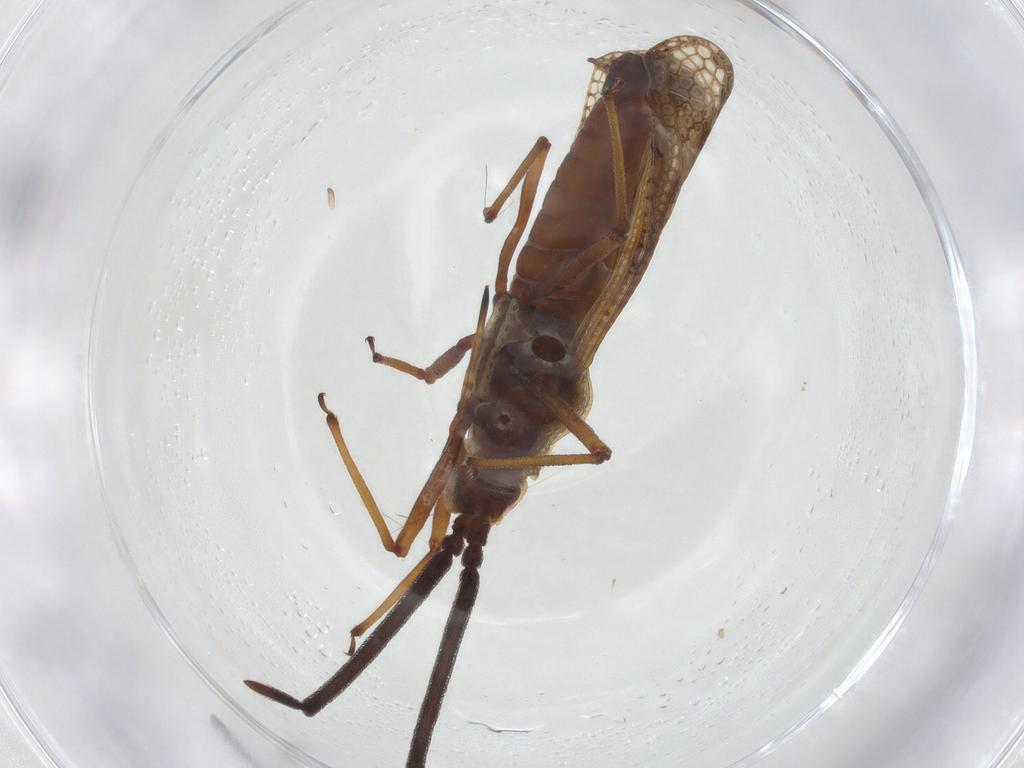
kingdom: Animalia
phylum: Arthropoda
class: Insecta
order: Hemiptera
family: Tingidae
